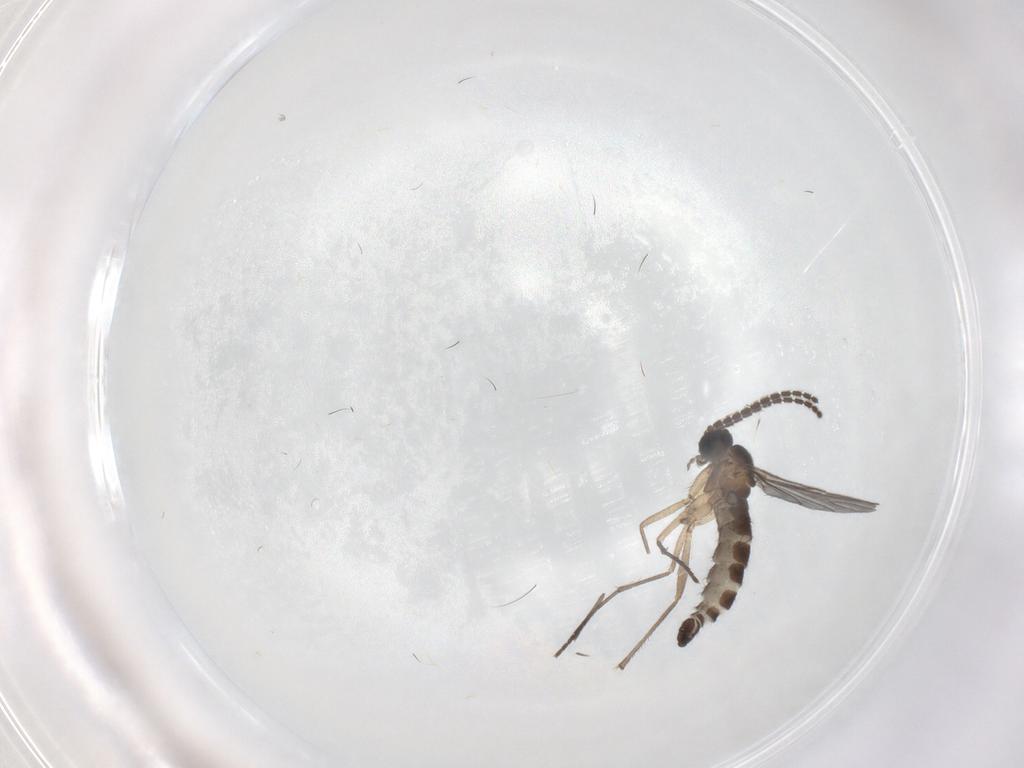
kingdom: Animalia
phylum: Arthropoda
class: Insecta
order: Diptera
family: Sciaridae
